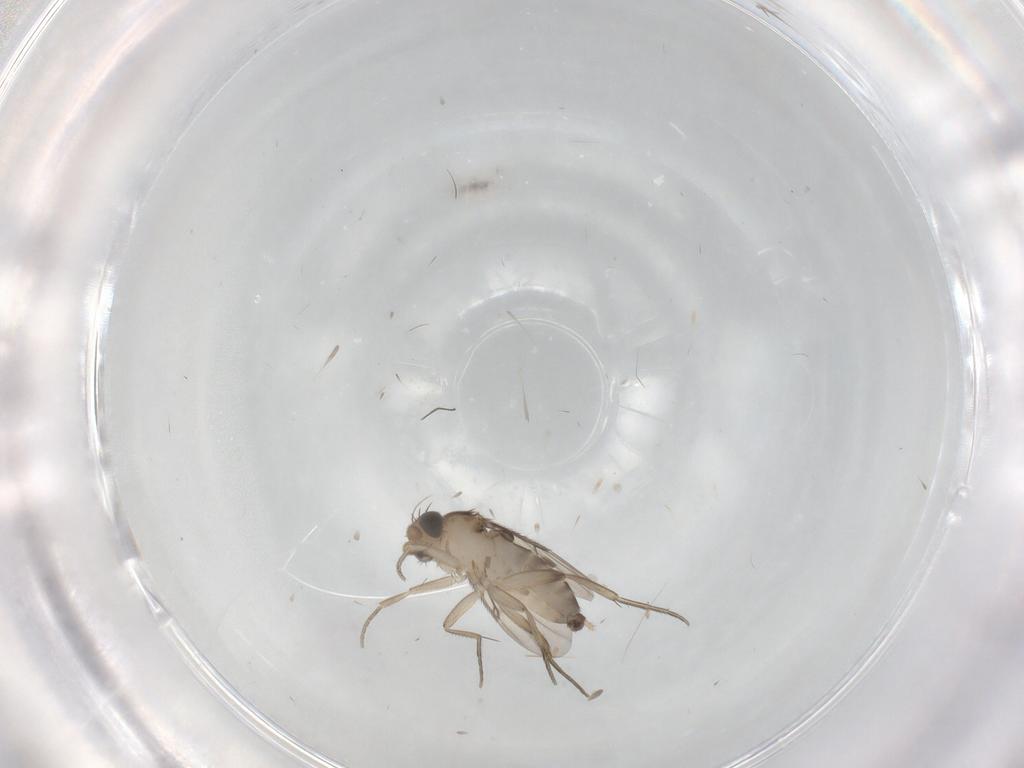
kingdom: Animalia
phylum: Arthropoda
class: Insecta
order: Diptera
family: Phoridae
